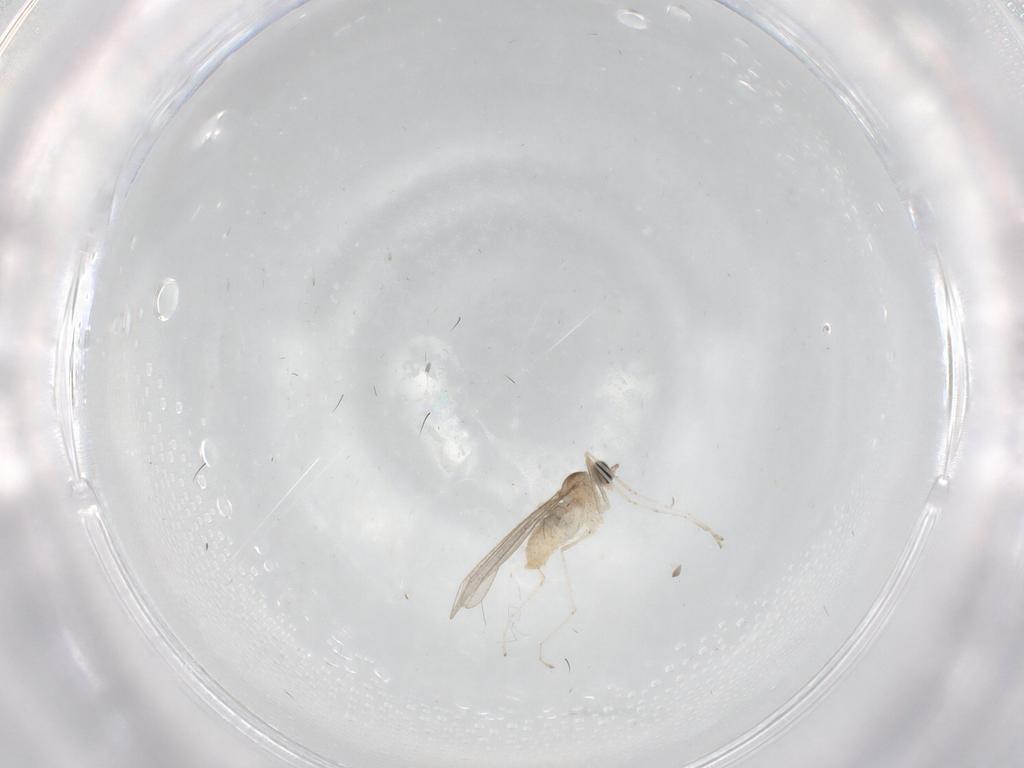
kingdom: Animalia
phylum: Arthropoda
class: Insecta
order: Diptera
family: Cecidomyiidae
